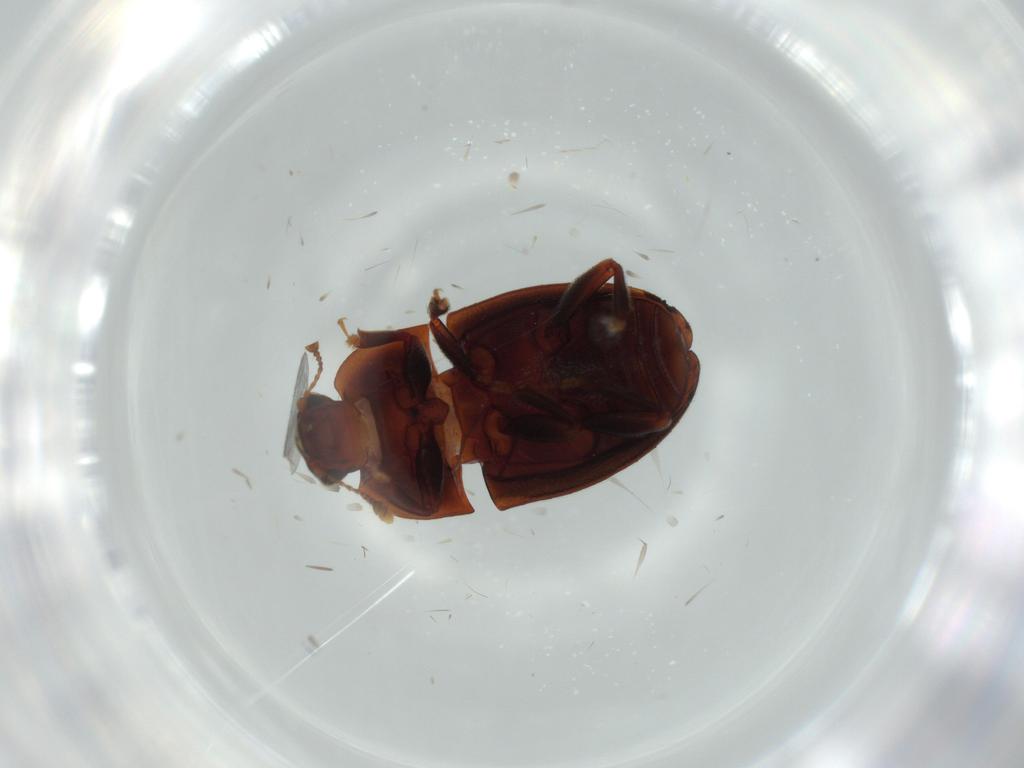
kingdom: Animalia
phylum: Arthropoda
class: Insecta
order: Coleoptera
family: Coccinellidae
